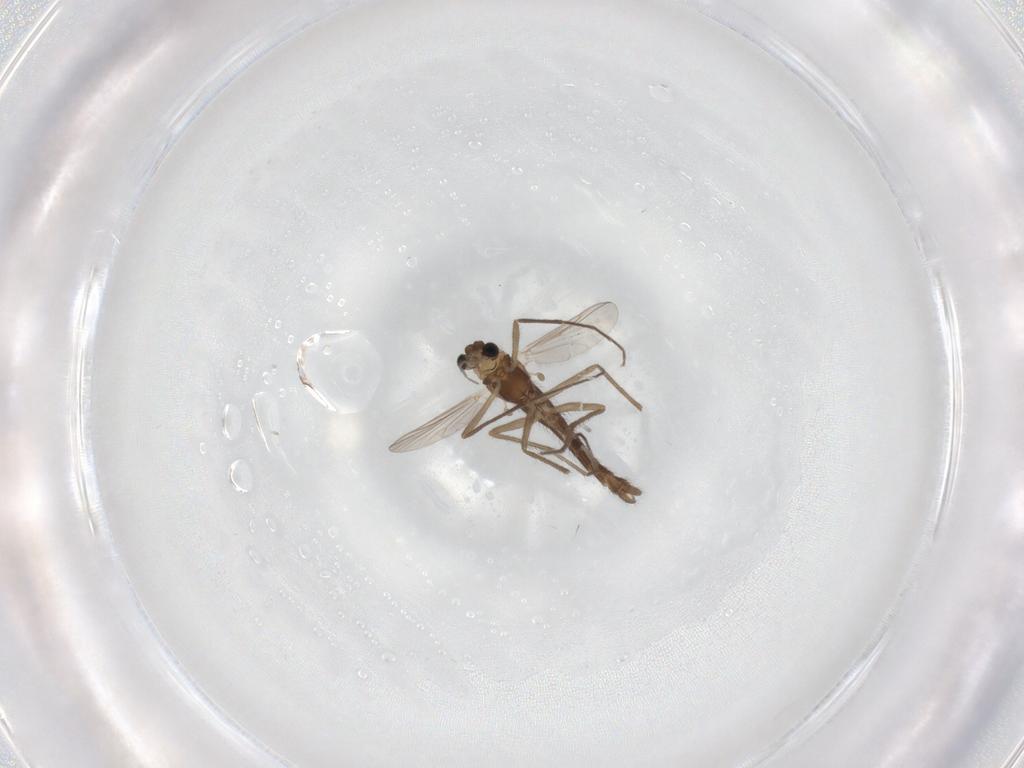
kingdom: Animalia
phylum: Arthropoda
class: Insecta
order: Diptera
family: Chironomidae
